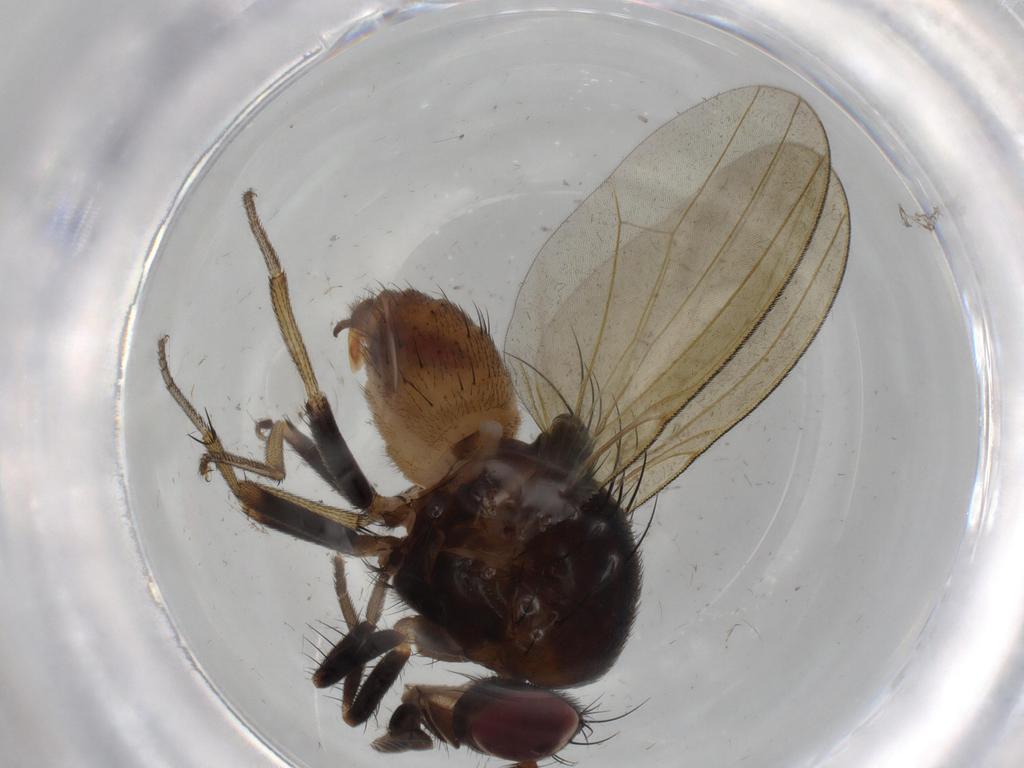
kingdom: Animalia
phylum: Arthropoda
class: Insecta
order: Diptera
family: Lauxaniidae
